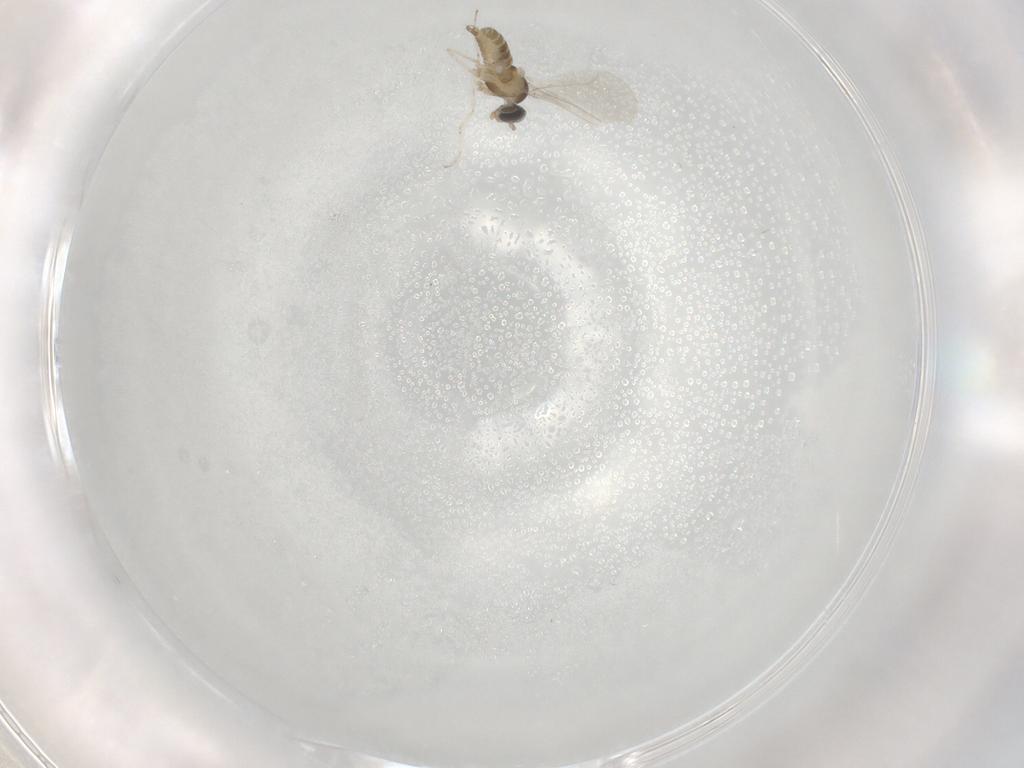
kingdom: Animalia
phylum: Arthropoda
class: Insecta
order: Diptera
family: Cecidomyiidae
